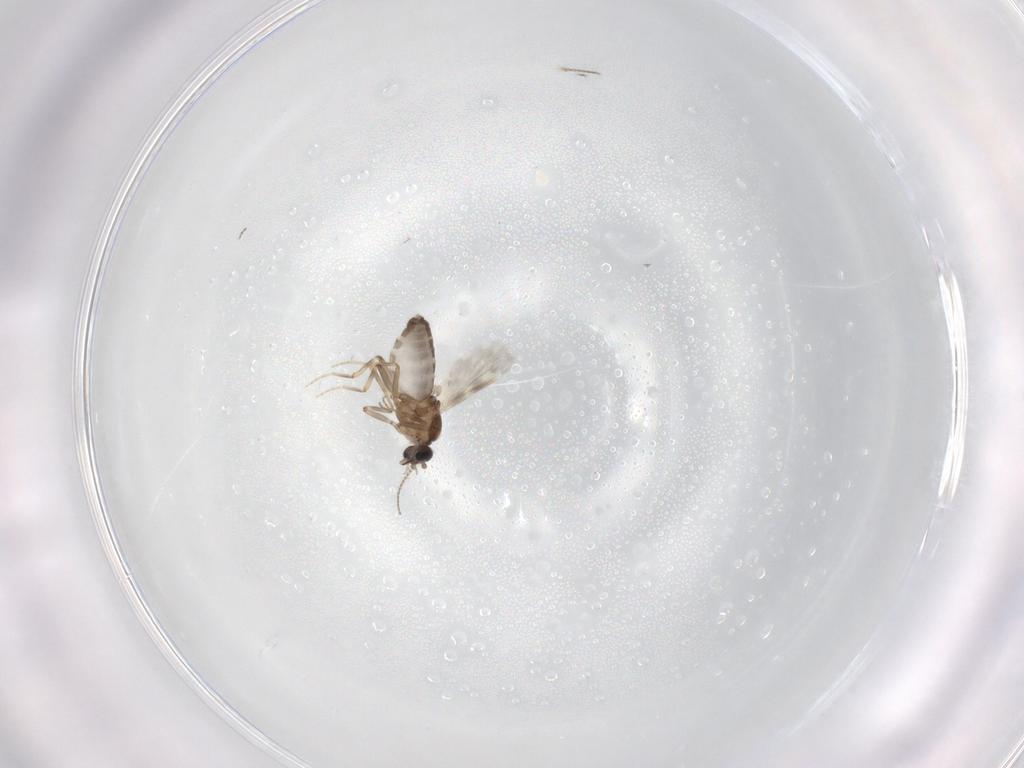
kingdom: Animalia
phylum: Arthropoda
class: Insecta
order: Diptera
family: Ceratopogonidae
